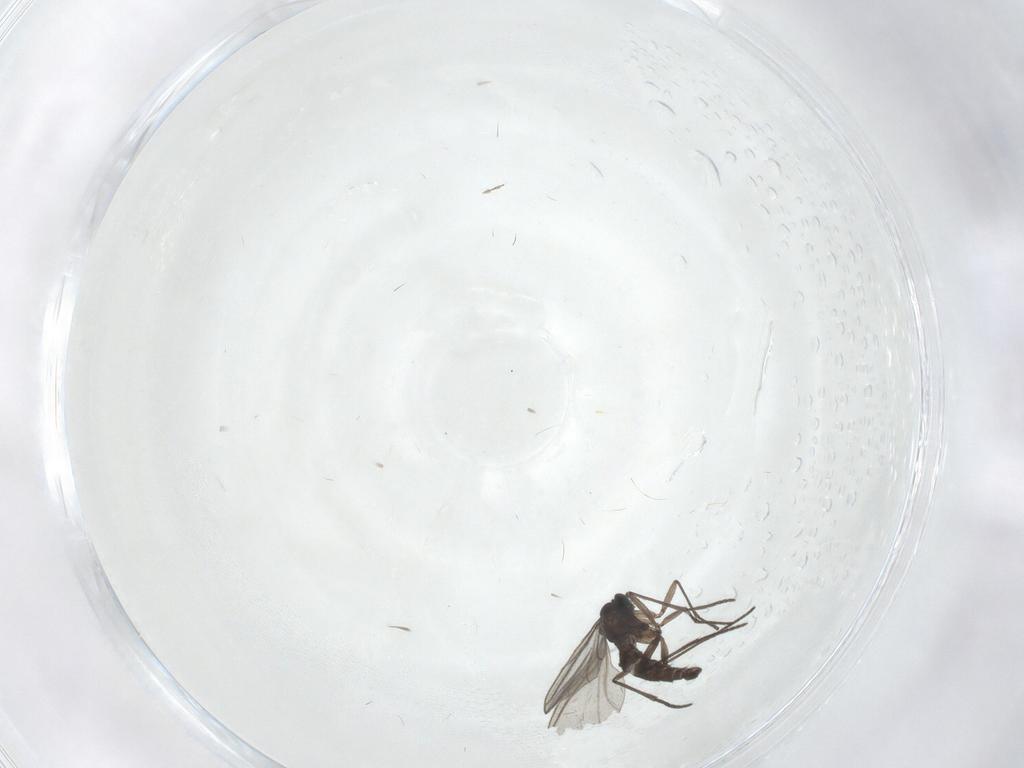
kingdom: Animalia
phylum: Arthropoda
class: Insecta
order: Diptera
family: Sciaridae
